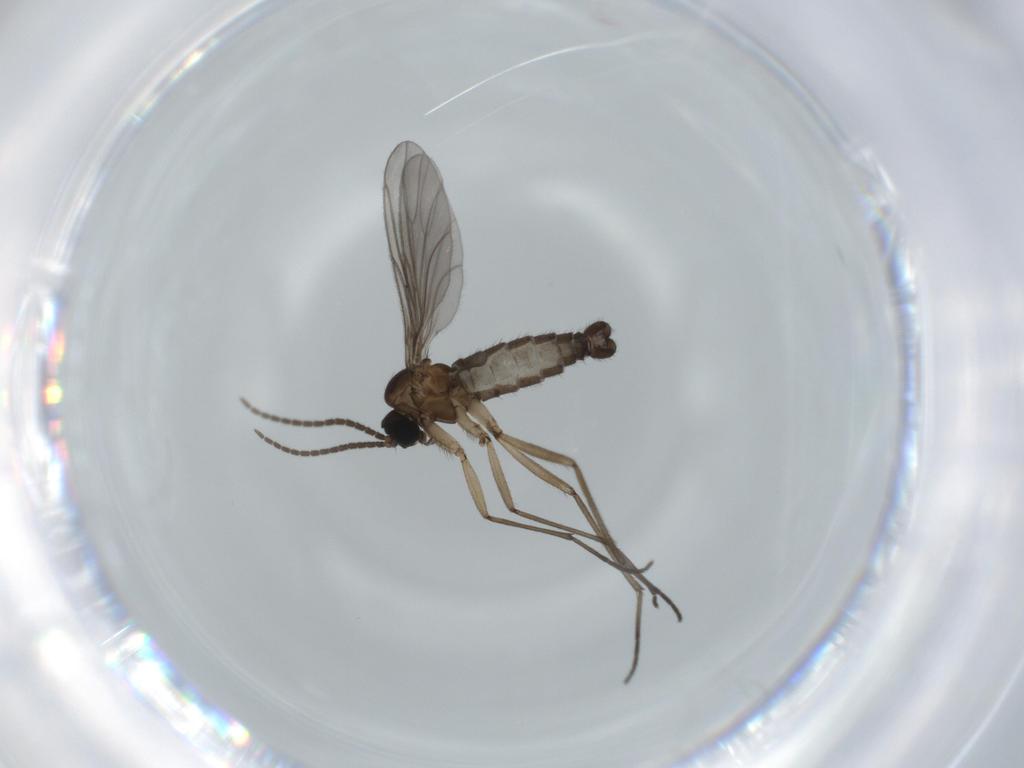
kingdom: Animalia
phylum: Arthropoda
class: Insecta
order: Diptera
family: Sciaridae
